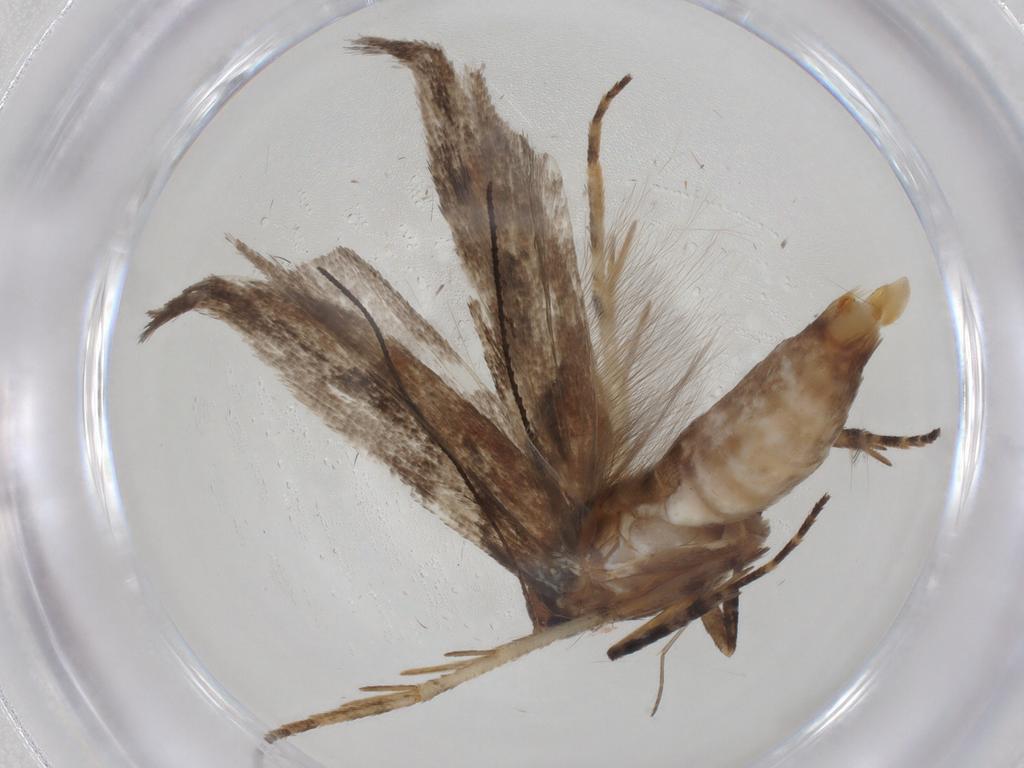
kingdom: Animalia
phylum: Arthropoda
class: Insecta
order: Lepidoptera
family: Gelechiidae
